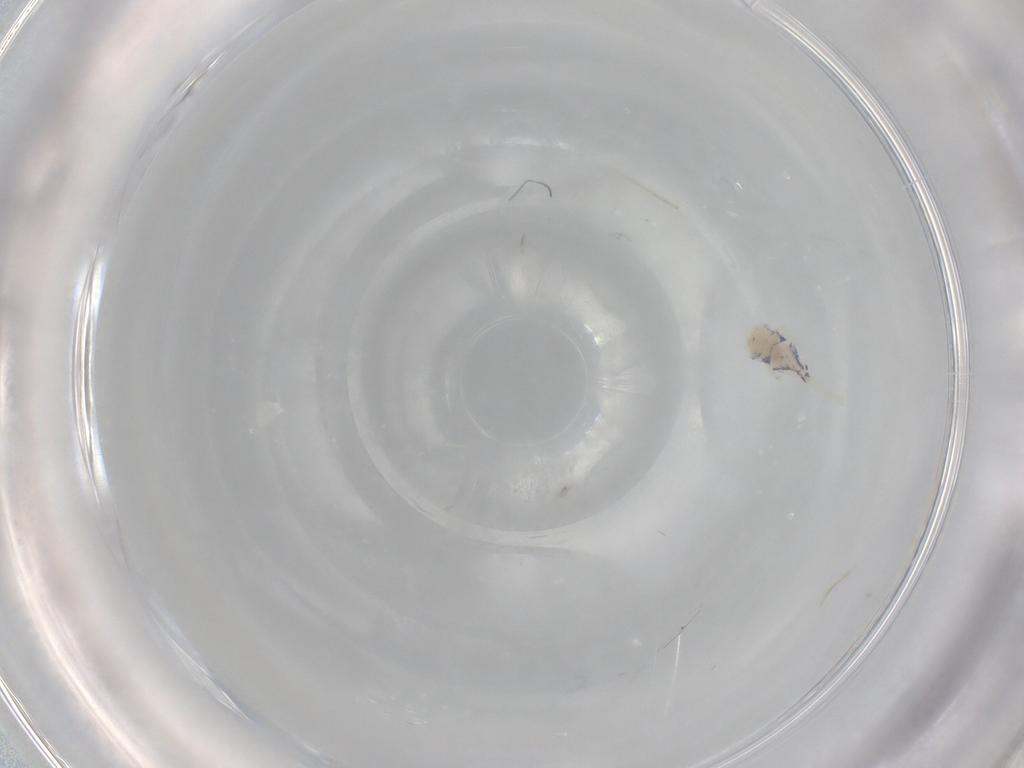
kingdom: Animalia
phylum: Arthropoda
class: Collembola
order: Entomobryomorpha
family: Entomobryidae
